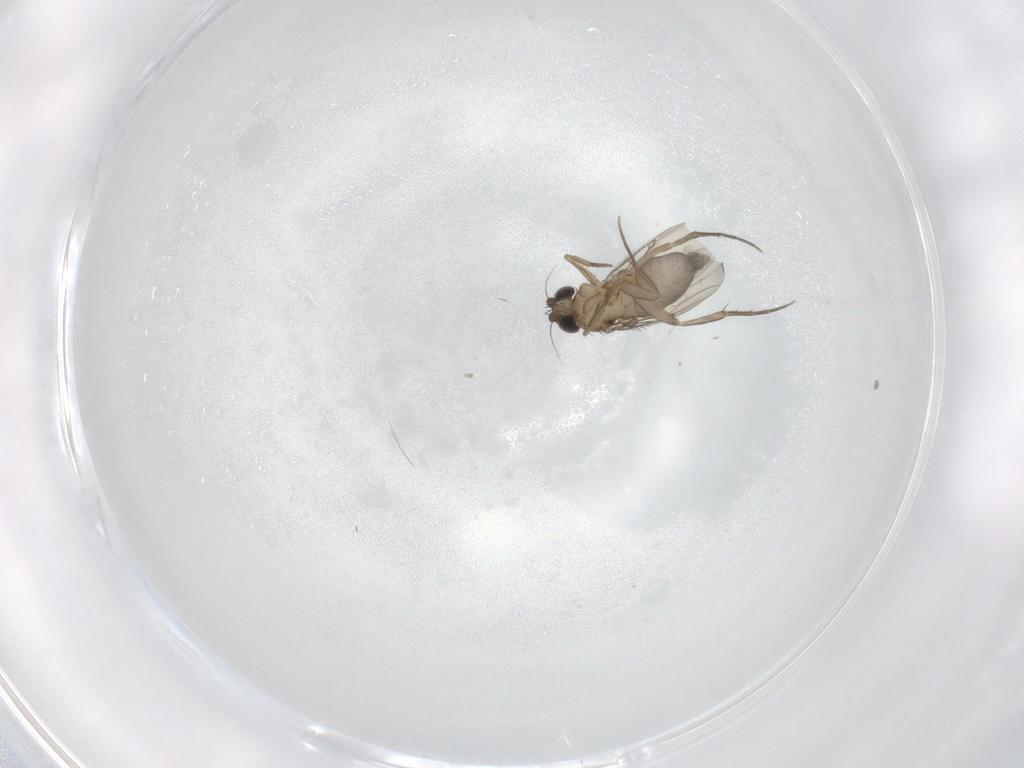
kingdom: Animalia
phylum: Arthropoda
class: Insecta
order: Diptera
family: Phoridae
